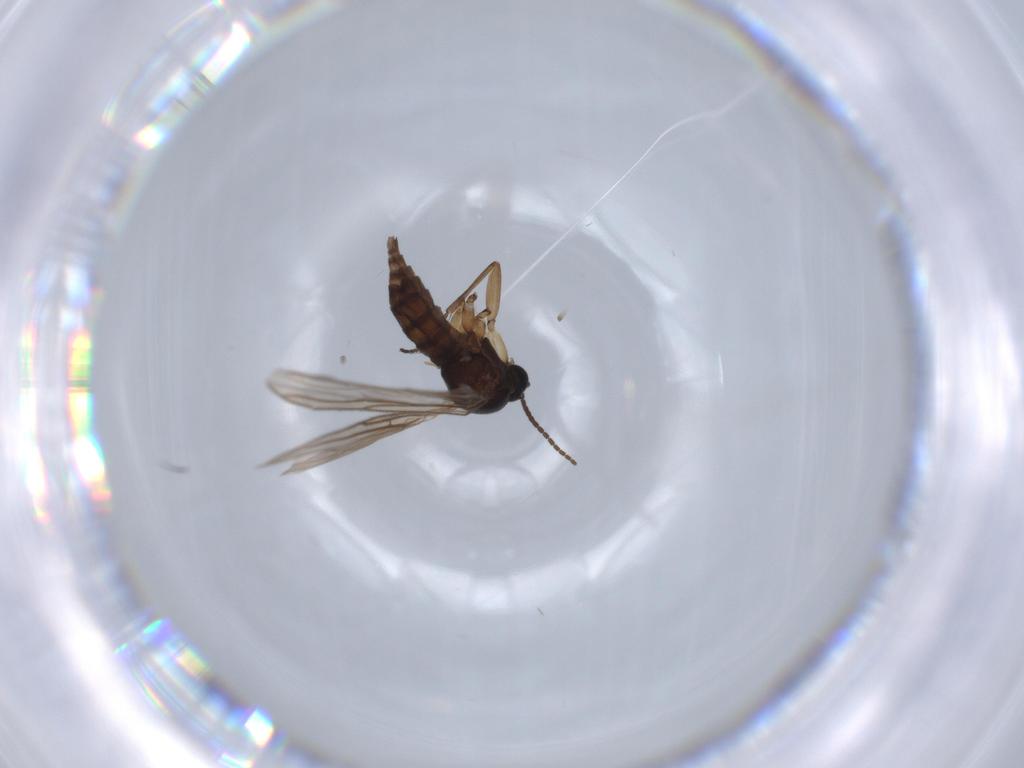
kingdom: Animalia
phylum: Arthropoda
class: Insecta
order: Diptera
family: Sciaridae
